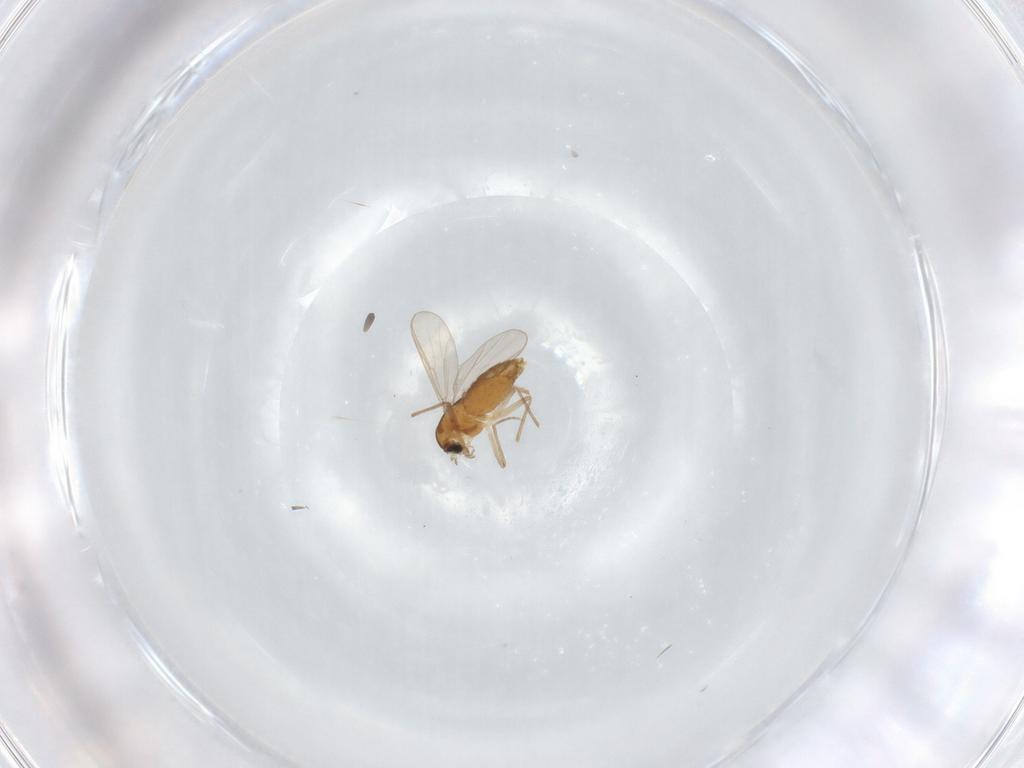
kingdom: Animalia
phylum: Arthropoda
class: Insecta
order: Diptera
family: Chironomidae
